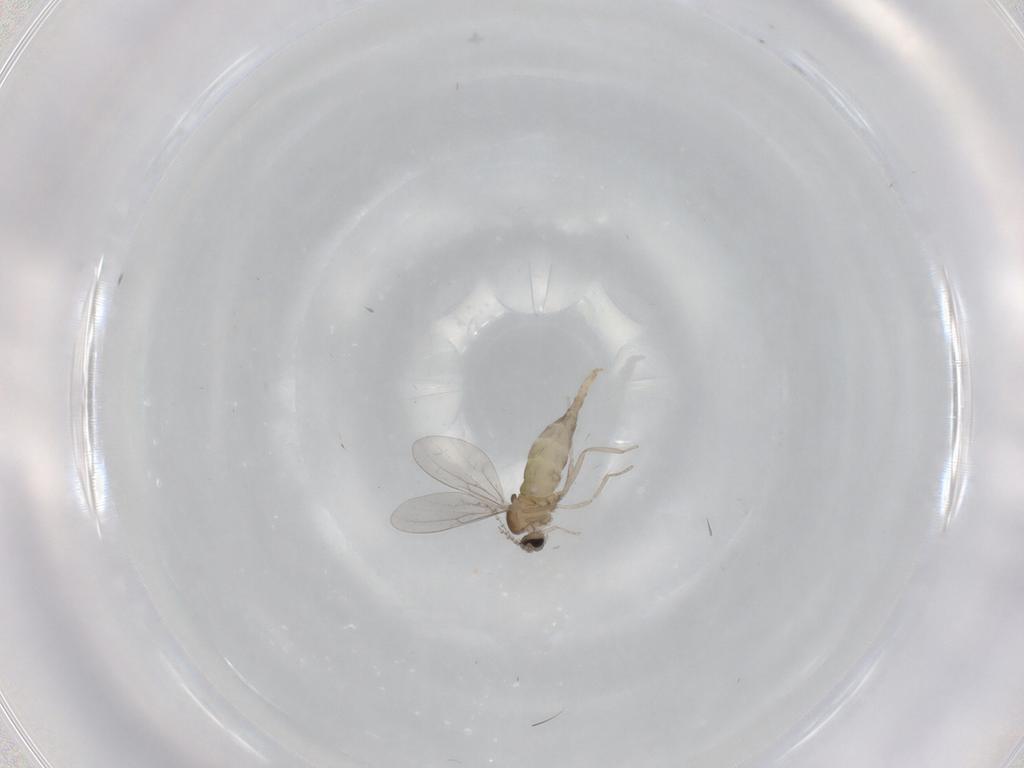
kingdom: Animalia
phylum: Arthropoda
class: Insecta
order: Diptera
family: Cecidomyiidae
